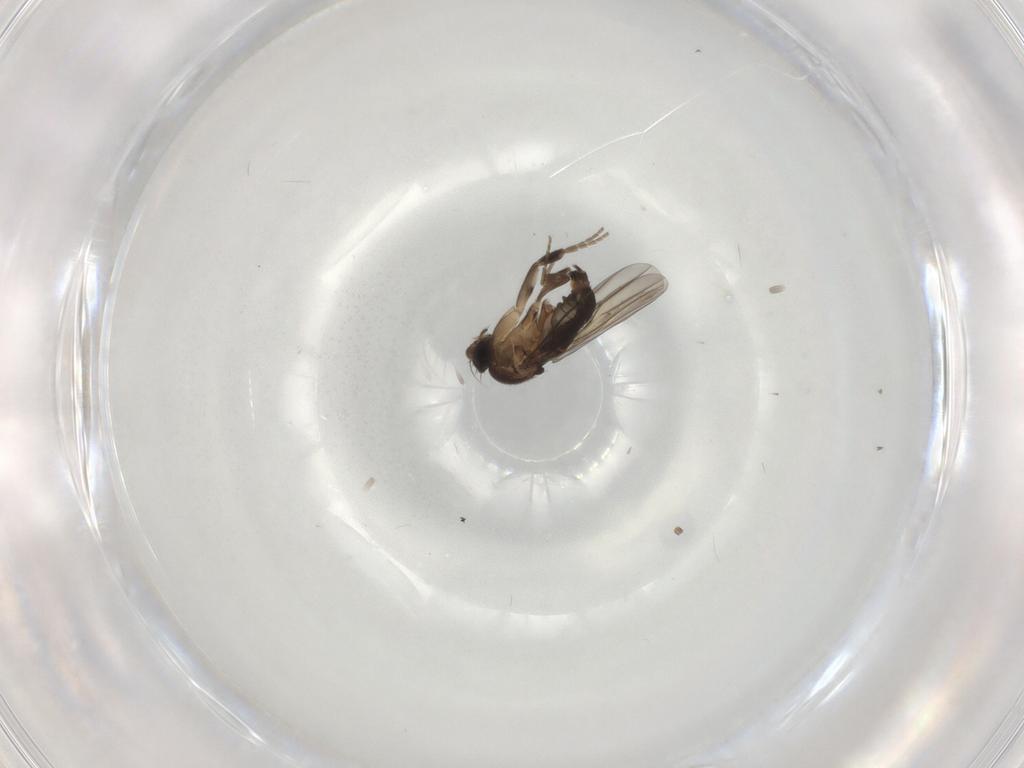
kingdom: Animalia
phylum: Arthropoda
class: Insecta
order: Diptera
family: Phoridae
